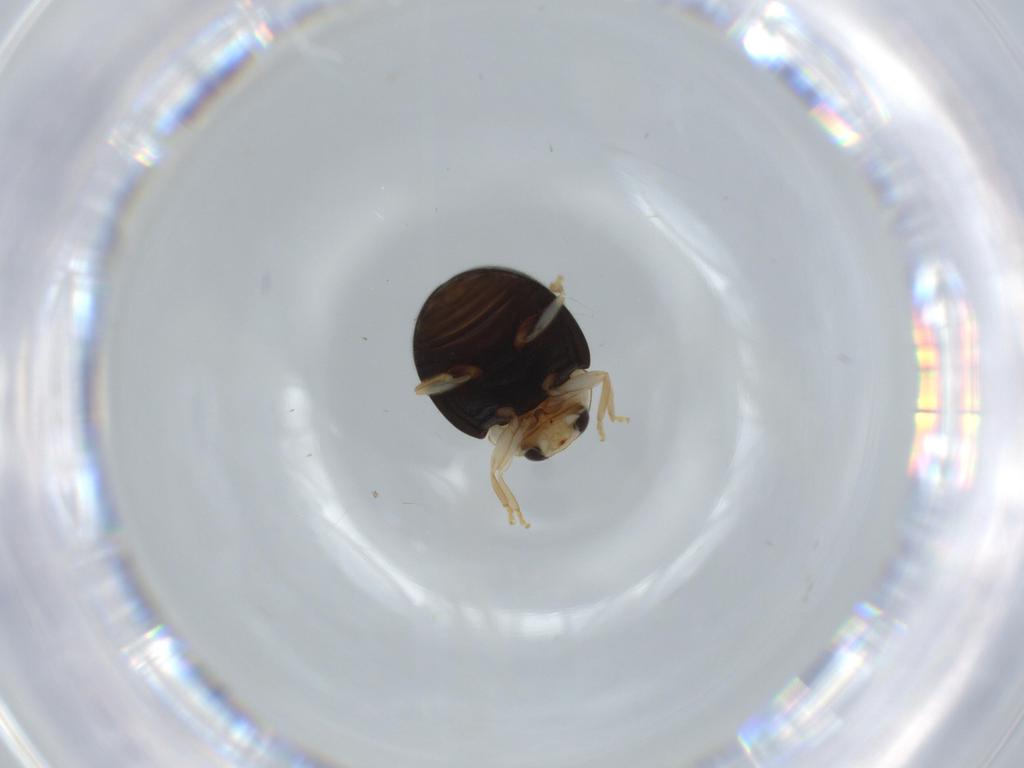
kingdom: Animalia
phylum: Arthropoda
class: Insecta
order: Coleoptera
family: Coccinellidae
